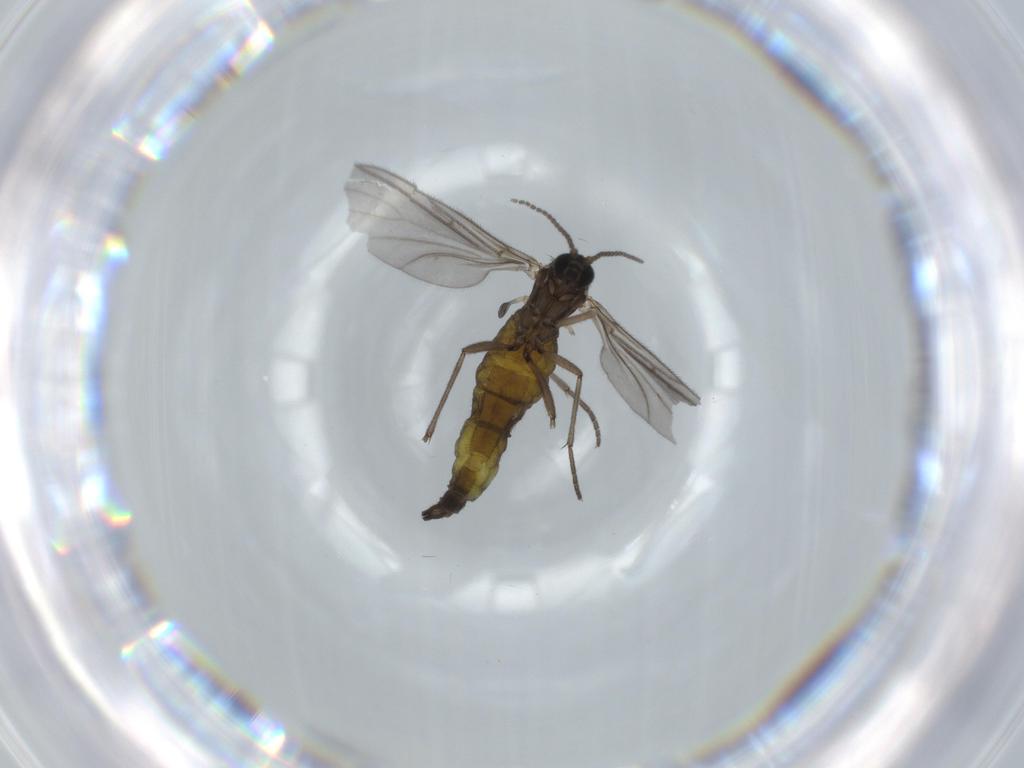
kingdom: Animalia
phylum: Arthropoda
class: Insecta
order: Diptera
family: Sciaridae
